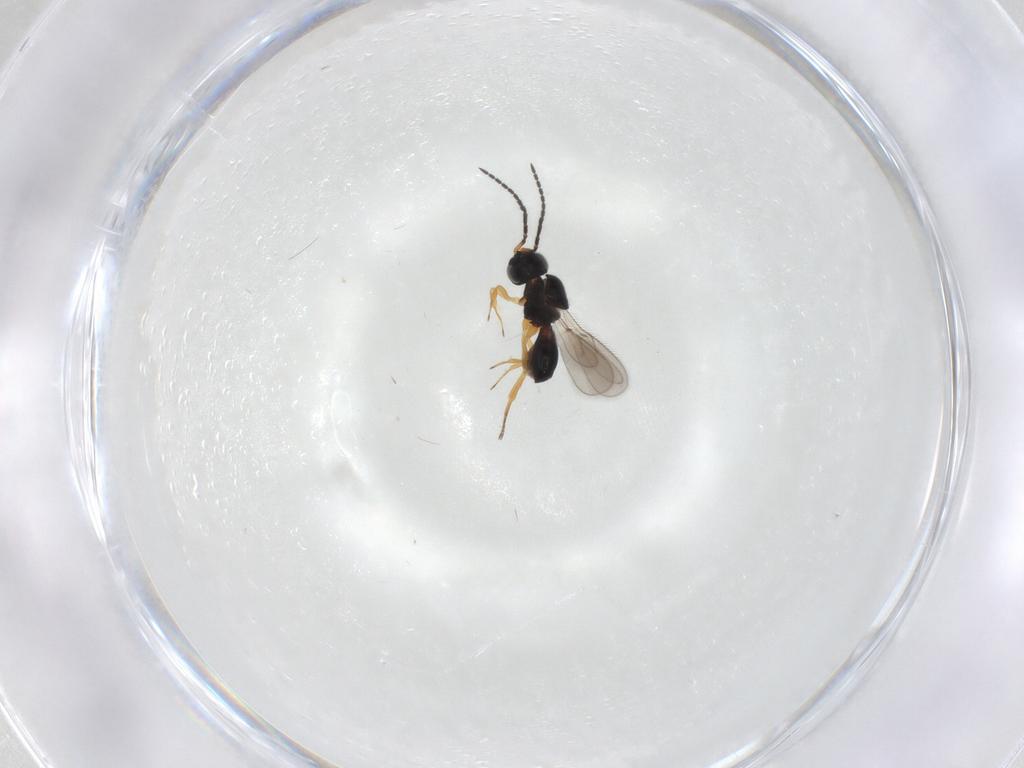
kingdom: Animalia
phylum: Arthropoda
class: Insecta
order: Hymenoptera
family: Scelionidae
